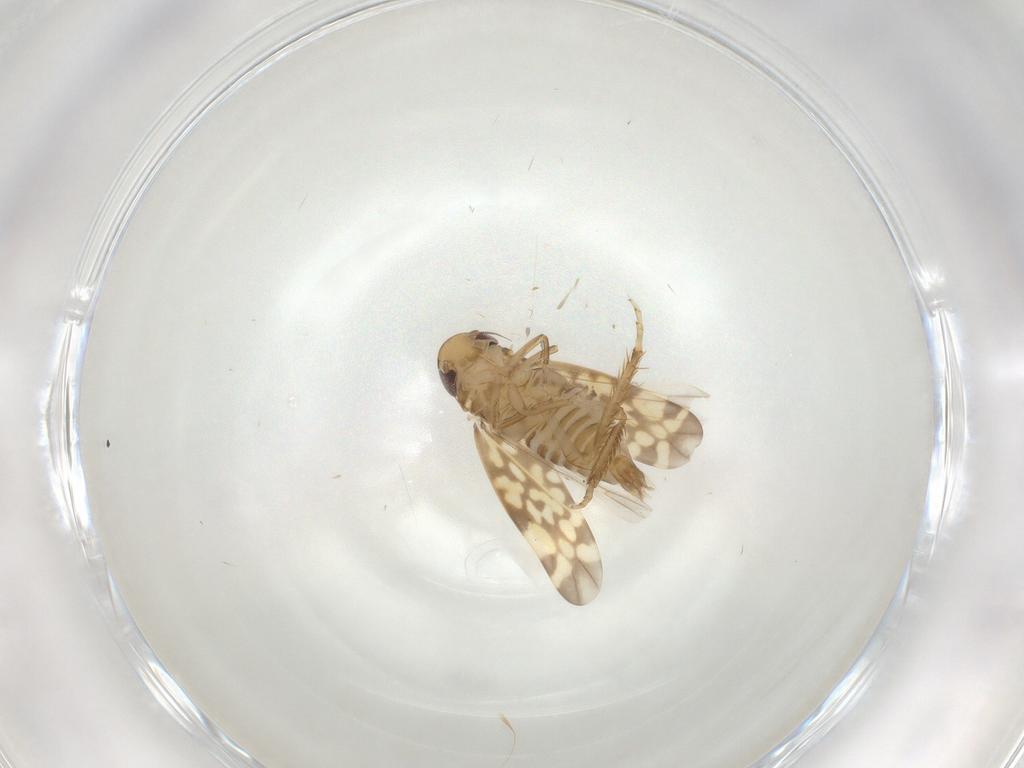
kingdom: Animalia
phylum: Arthropoda
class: Insecta
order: Hemiptera
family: Cicadellidae
